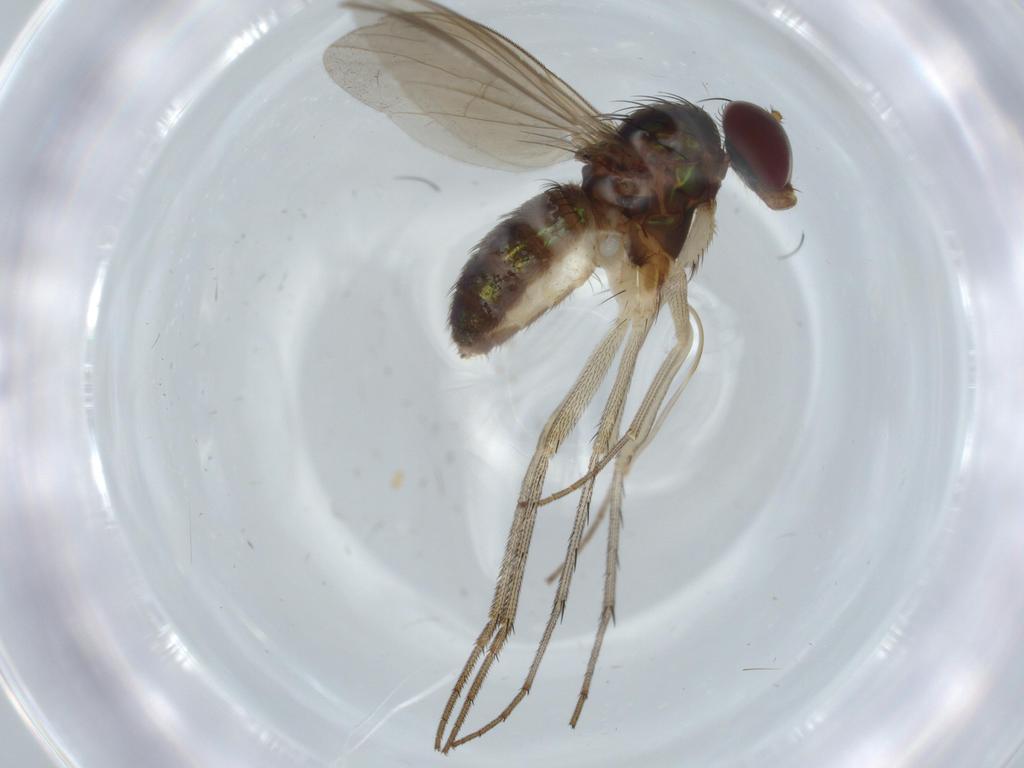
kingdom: Animalia
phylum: Arthropoda
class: Insecta
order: Diptera
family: Dolichopodidae
